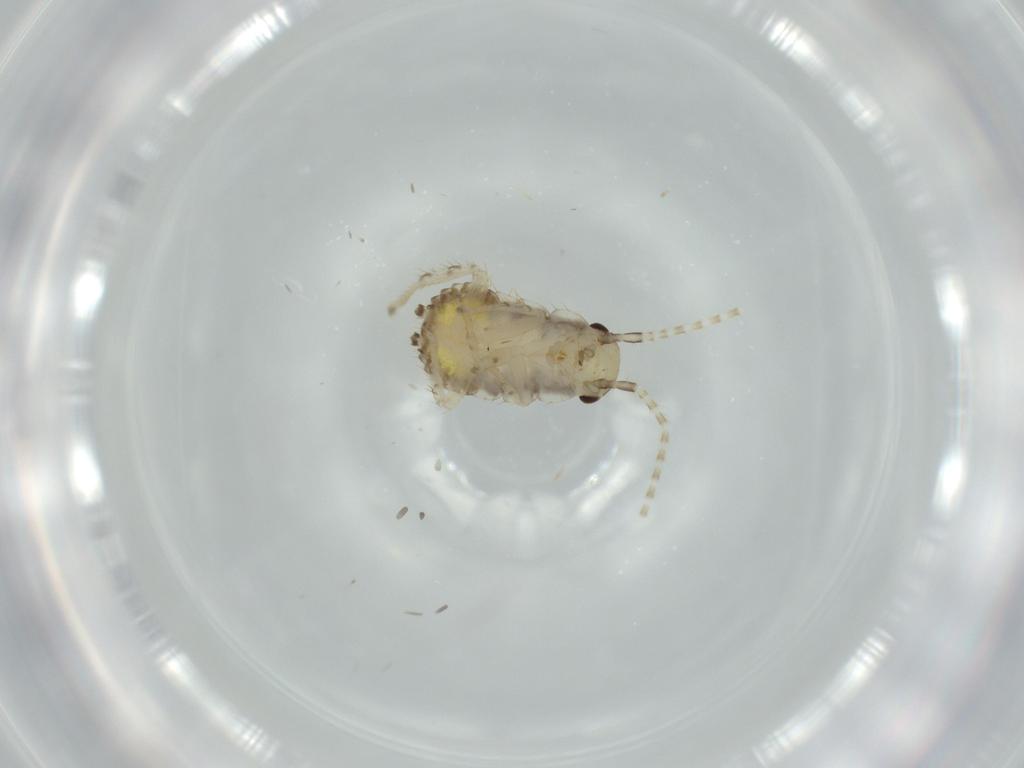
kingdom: Animalia
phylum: Arthropoda
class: Insecta
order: Blattodea
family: Ectobiidae
